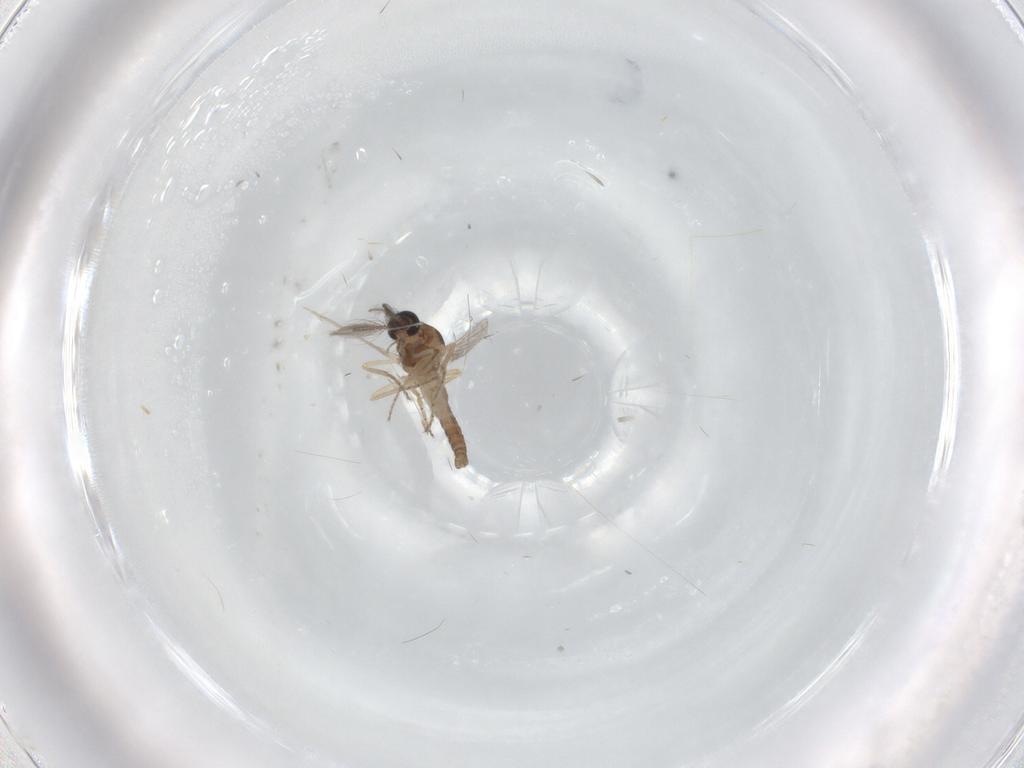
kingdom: Animalia
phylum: Arthropoda
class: Insecta
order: Diptera
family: Ceratopogonidae
